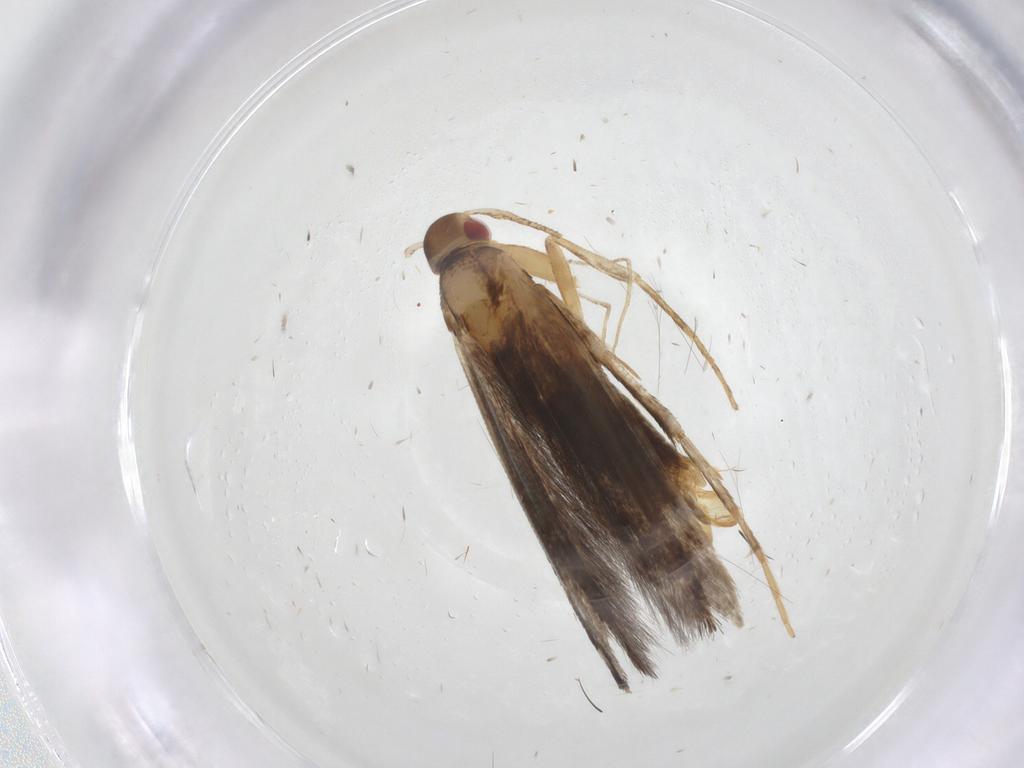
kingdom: Animalia
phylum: Arthropoda
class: Insecta
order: Lepidoptera
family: Cosmopterigidae
